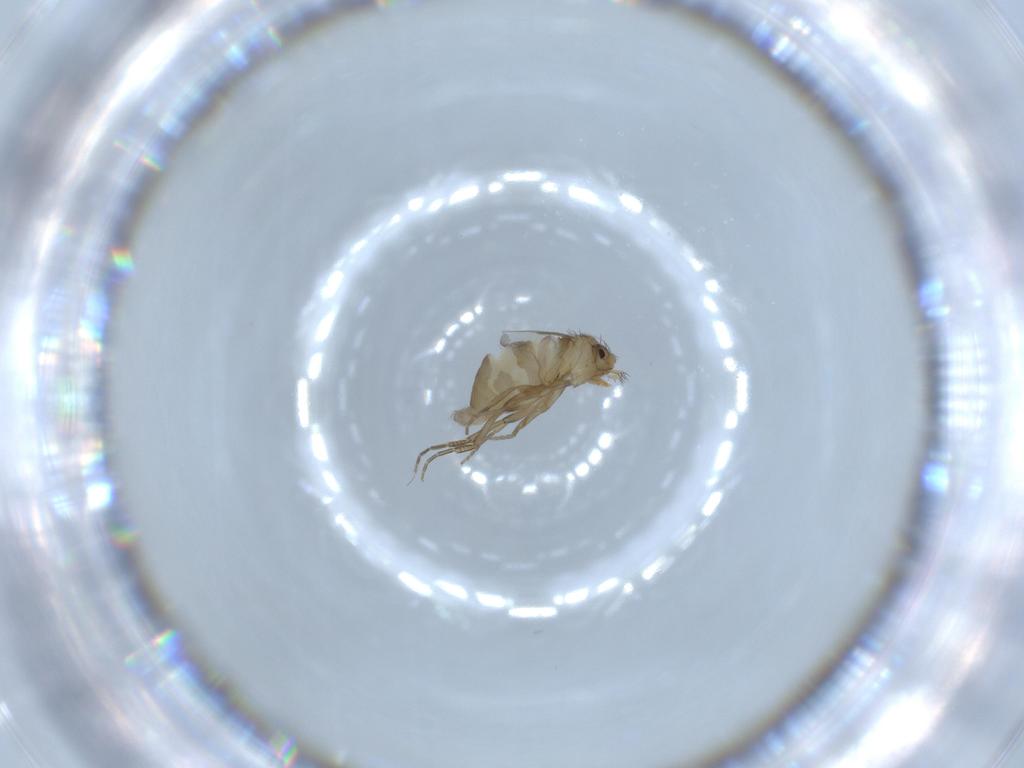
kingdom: Animalia
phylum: Arthropoda
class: Insecta
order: Diptera
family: Phoridae
